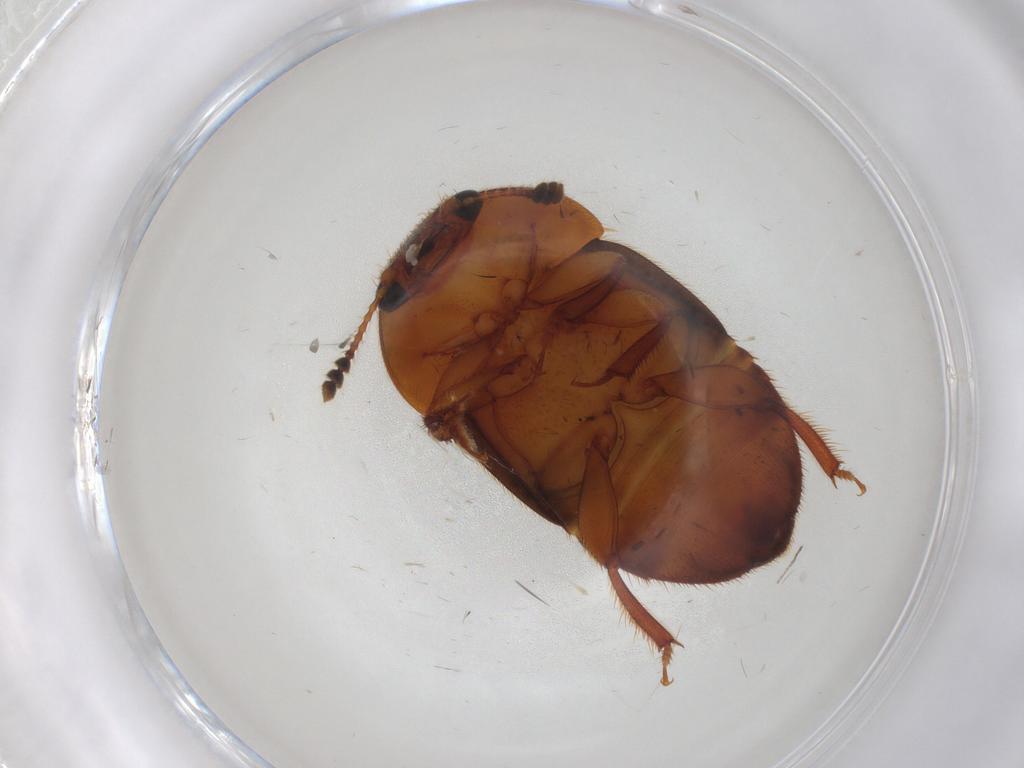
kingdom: Animalia
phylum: Arthropoda
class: Insecta
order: Coleoptera
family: Nitidulidae
